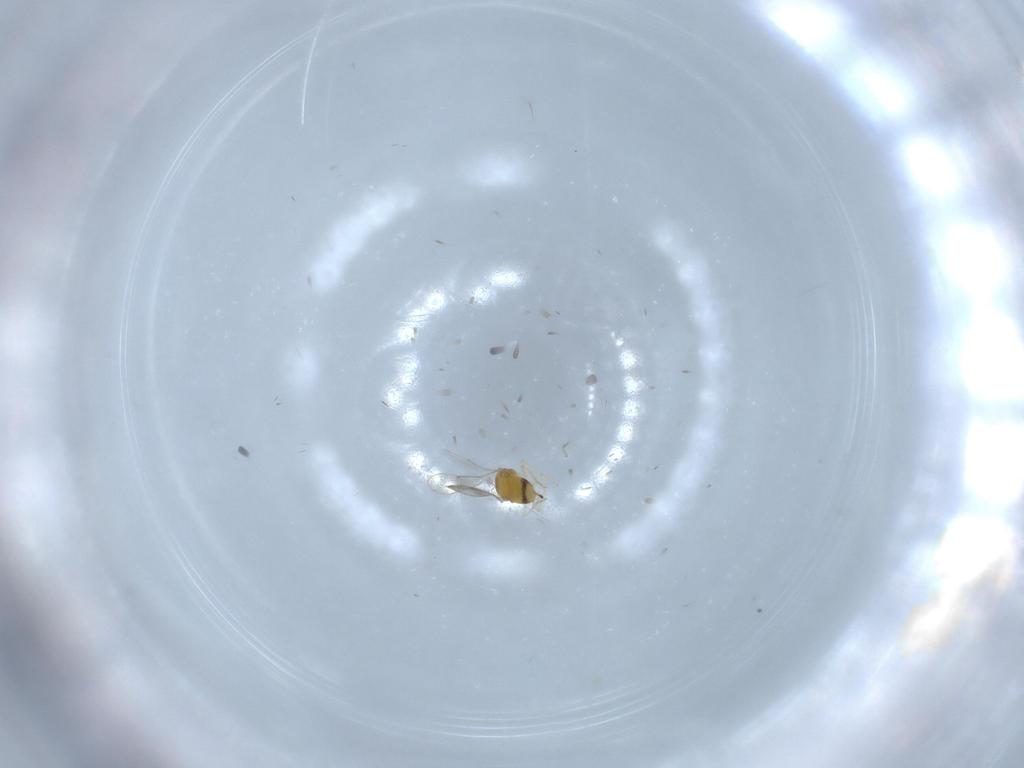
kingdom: Animalia
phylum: Arthropoda
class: Insecta
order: Hymenoptera
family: Aphelinidae
